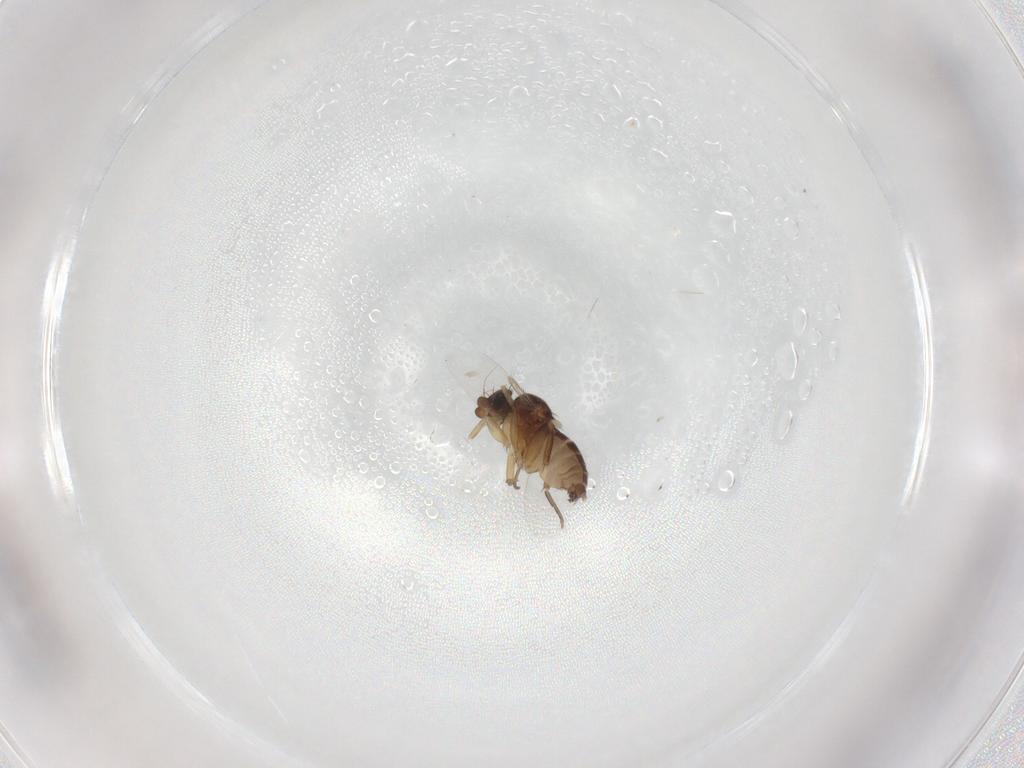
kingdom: Animalia
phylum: Arthropoda
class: Insecta
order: Diptera
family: Phoridae
